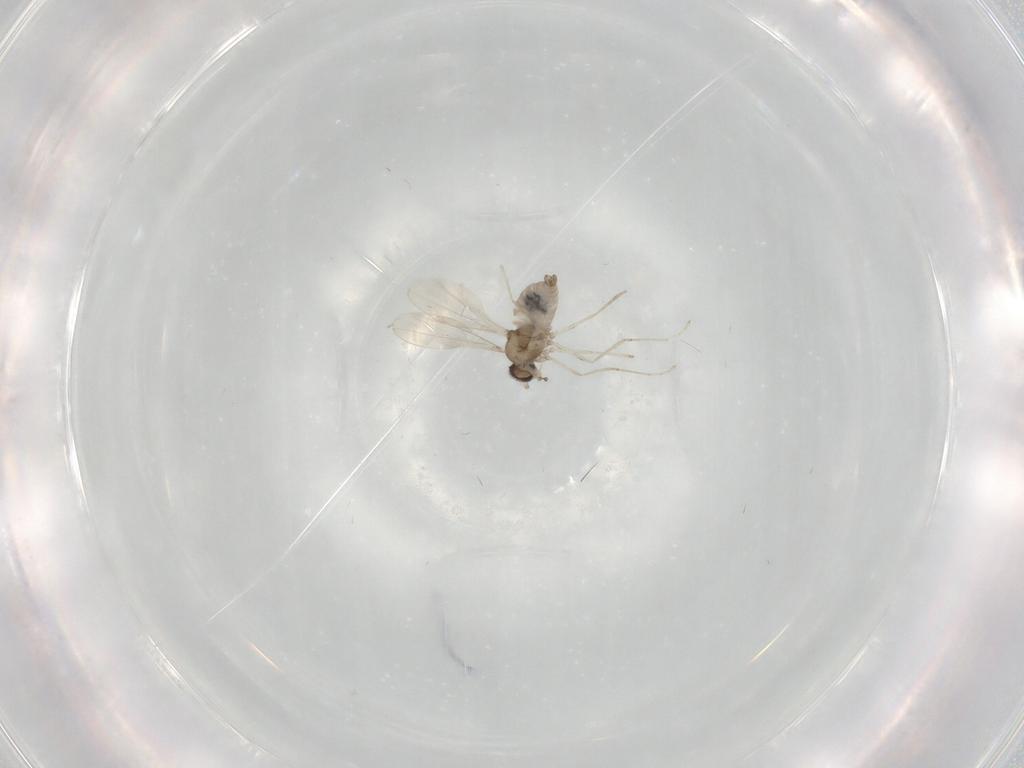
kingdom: Animalia
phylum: Arthropoda
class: Insecta
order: Diptera
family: Cecidomyiidae
